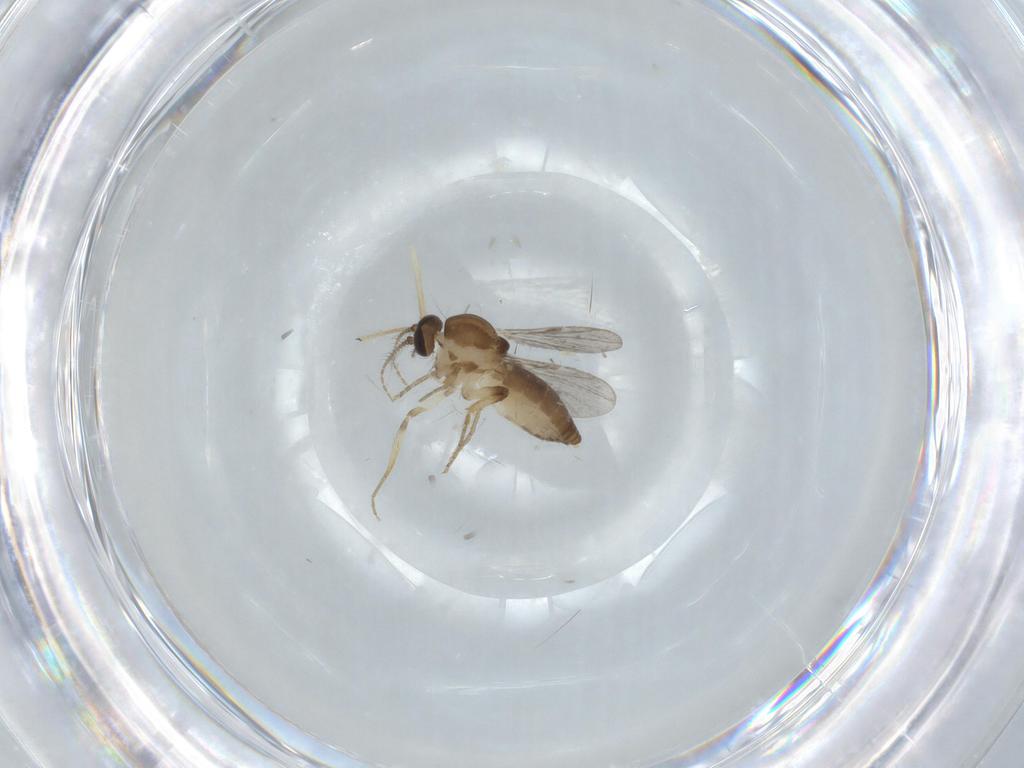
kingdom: Animalia
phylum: Arthropoda
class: Insecta
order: Diptera
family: Ceratopogonidae
